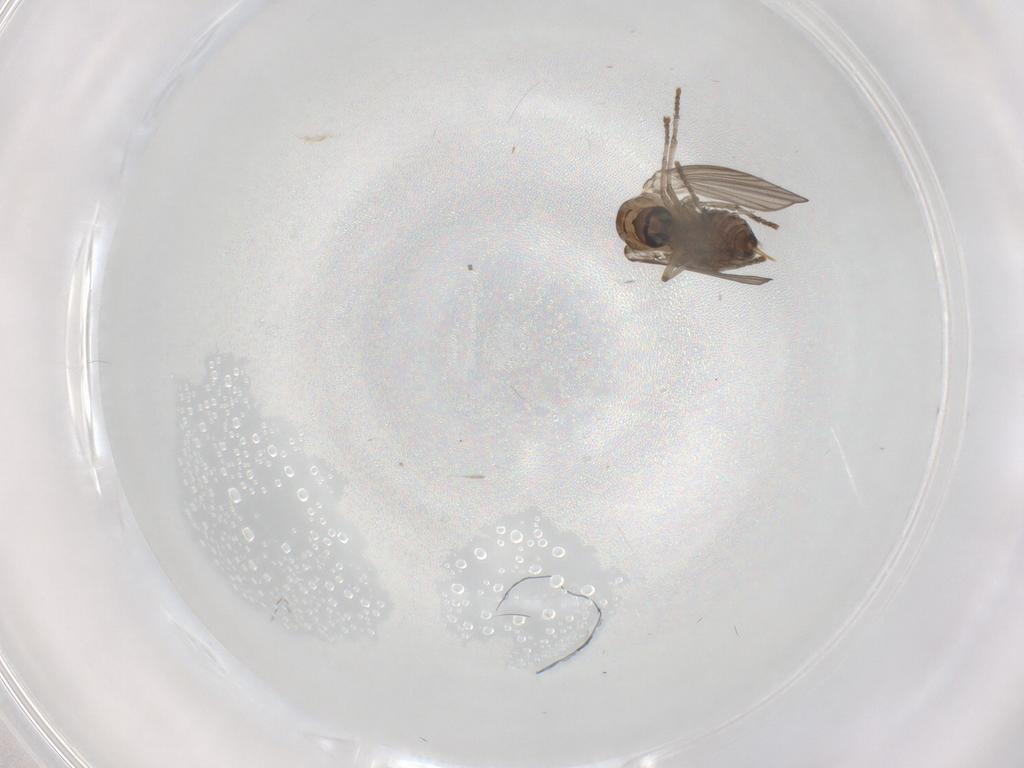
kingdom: Animalia
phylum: Arthropoda
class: Insecta
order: Diptera
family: Psychodidae
